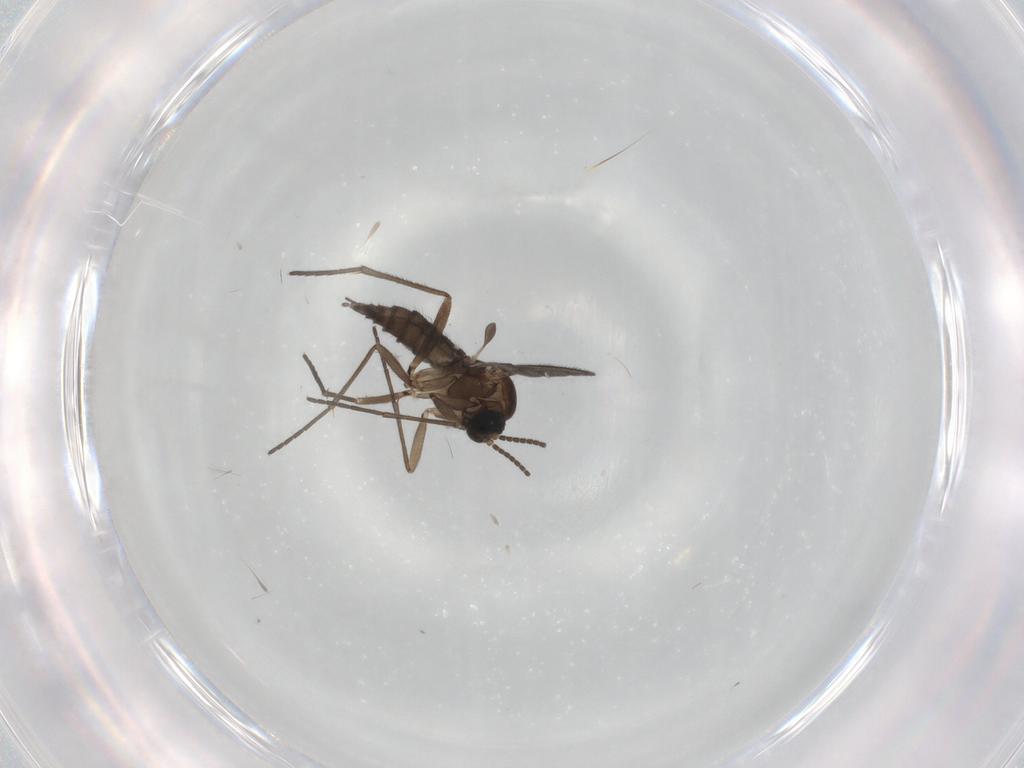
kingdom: Animalia
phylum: Arthropoda
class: Insecta
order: Diptera
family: Sciaridae
